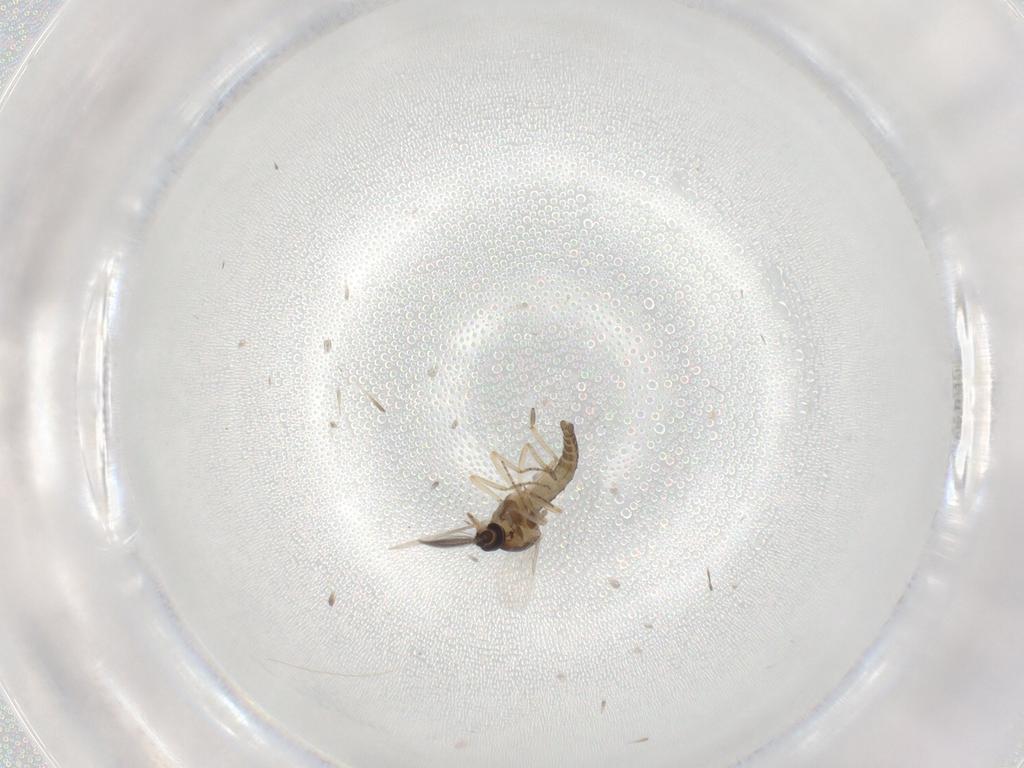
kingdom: Animalia
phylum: Arthropoda
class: Insecta
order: Diptera
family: Ceratopogonidae
